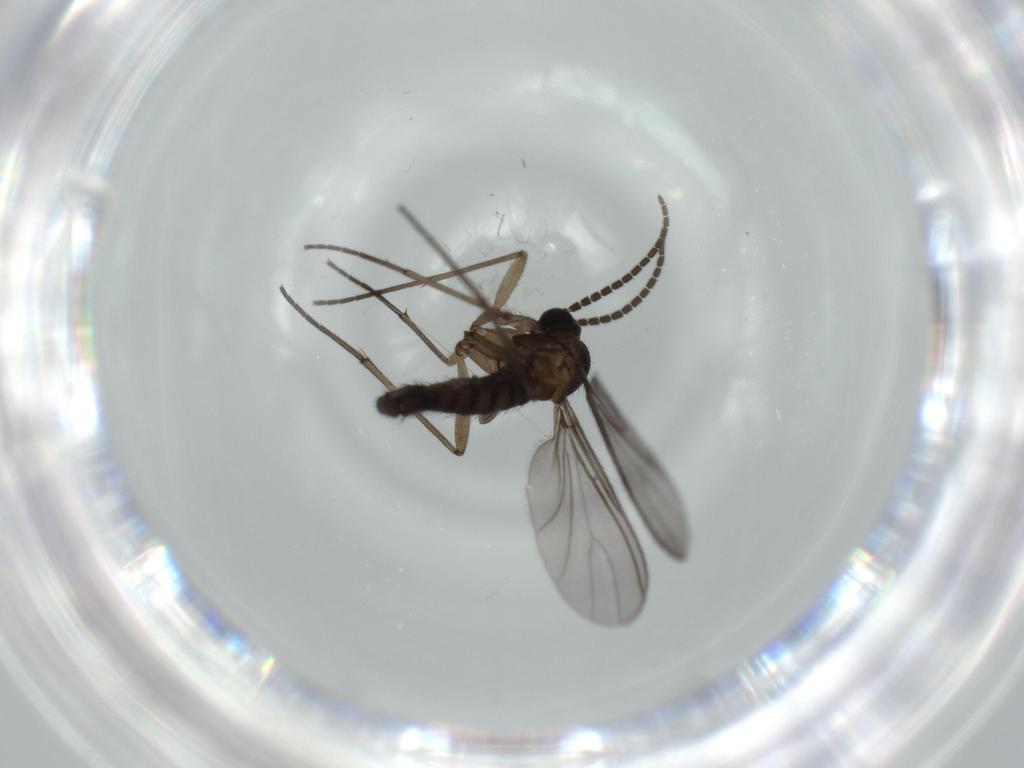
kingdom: Animalia
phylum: Arthropoda
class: Insecta
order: Diptera
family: Sciaridae
